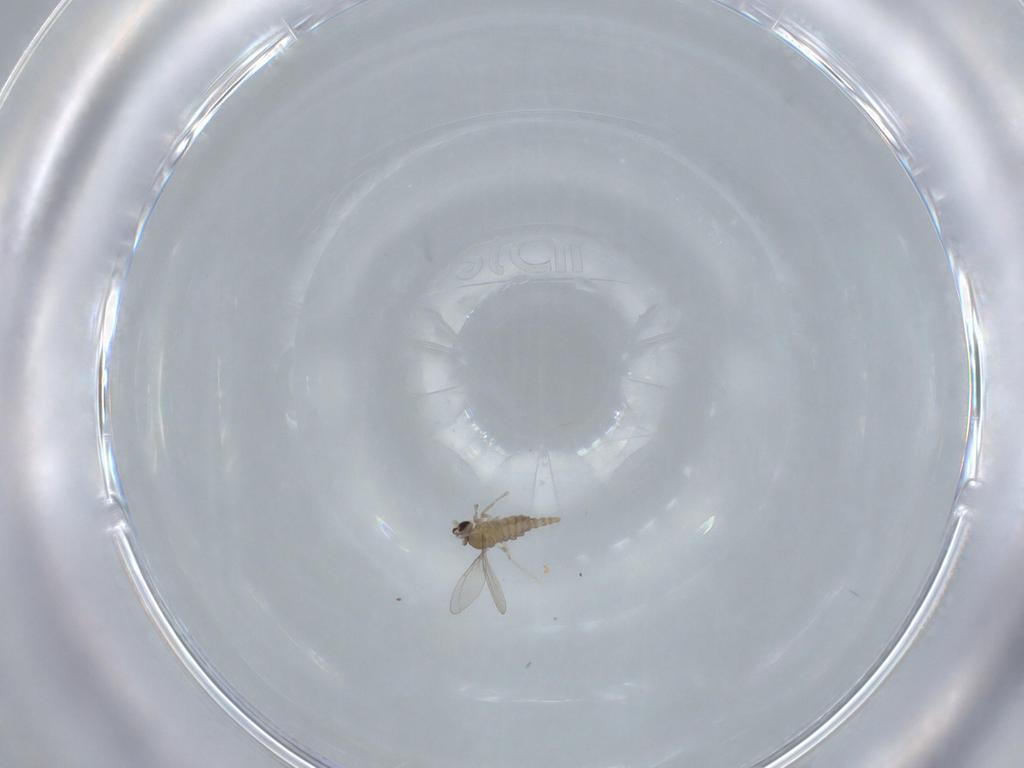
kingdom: Animalia
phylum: Arthropoda
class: Insecta
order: Diptera
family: Cecidomyiidae
